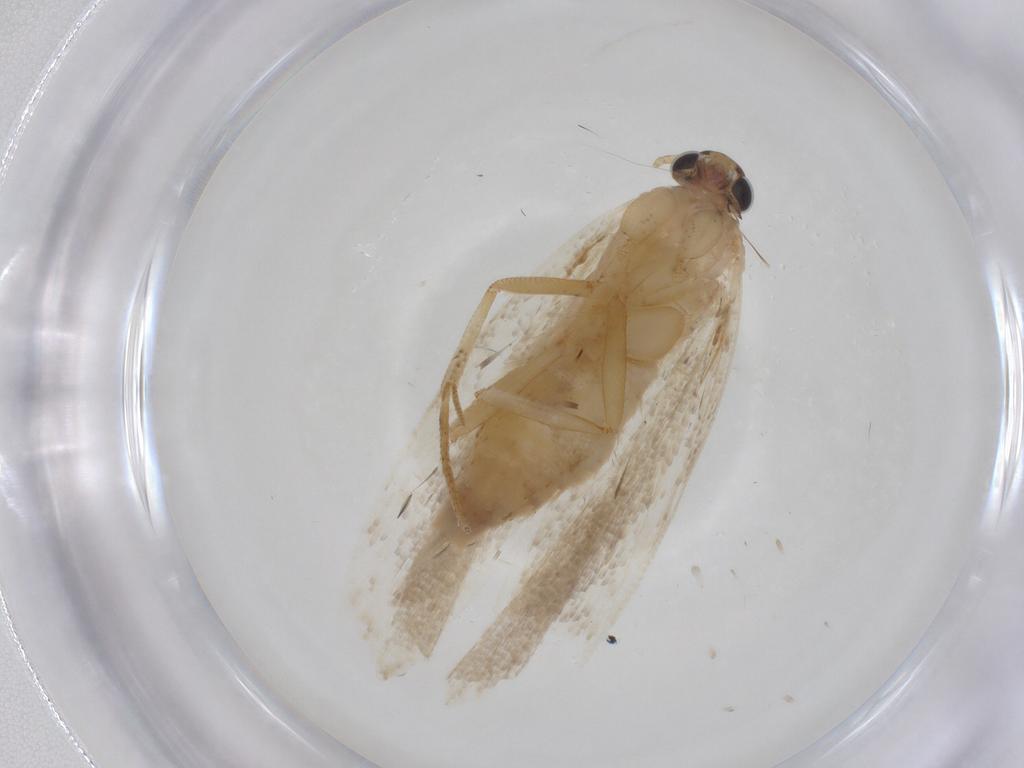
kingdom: Animalia
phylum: Arthropoda
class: Insecta
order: Lepidoptera
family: Gelechiidae
